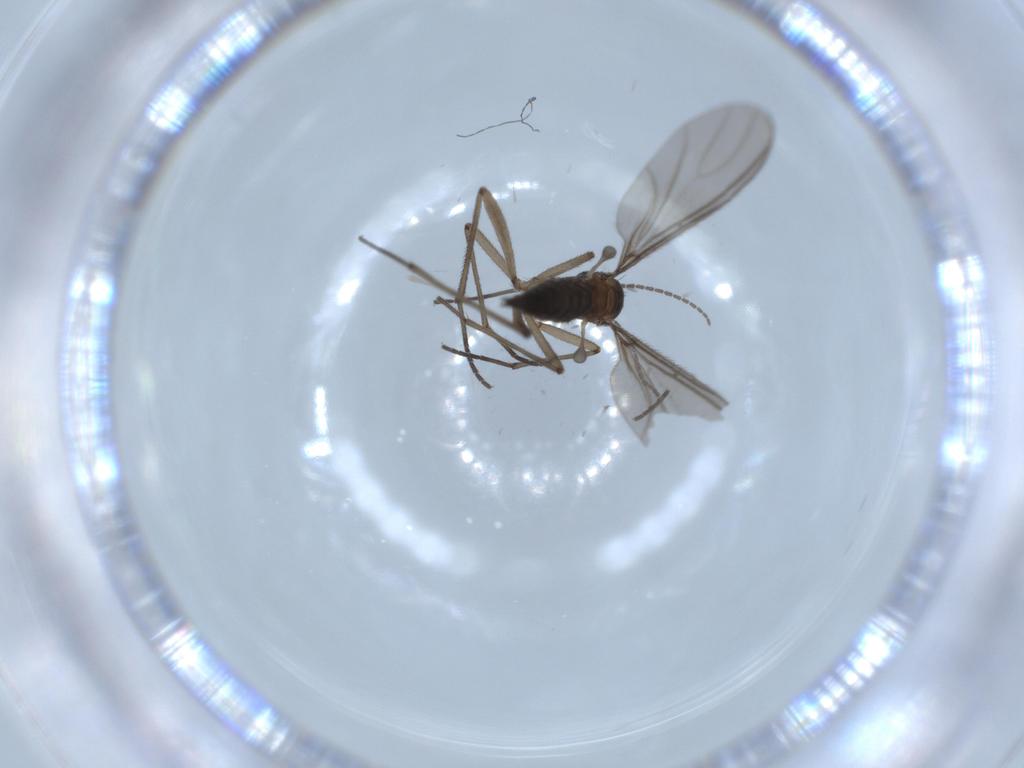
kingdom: Animalia
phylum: Arthropoda
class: Insecta
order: Diptera
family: Sciaridae
